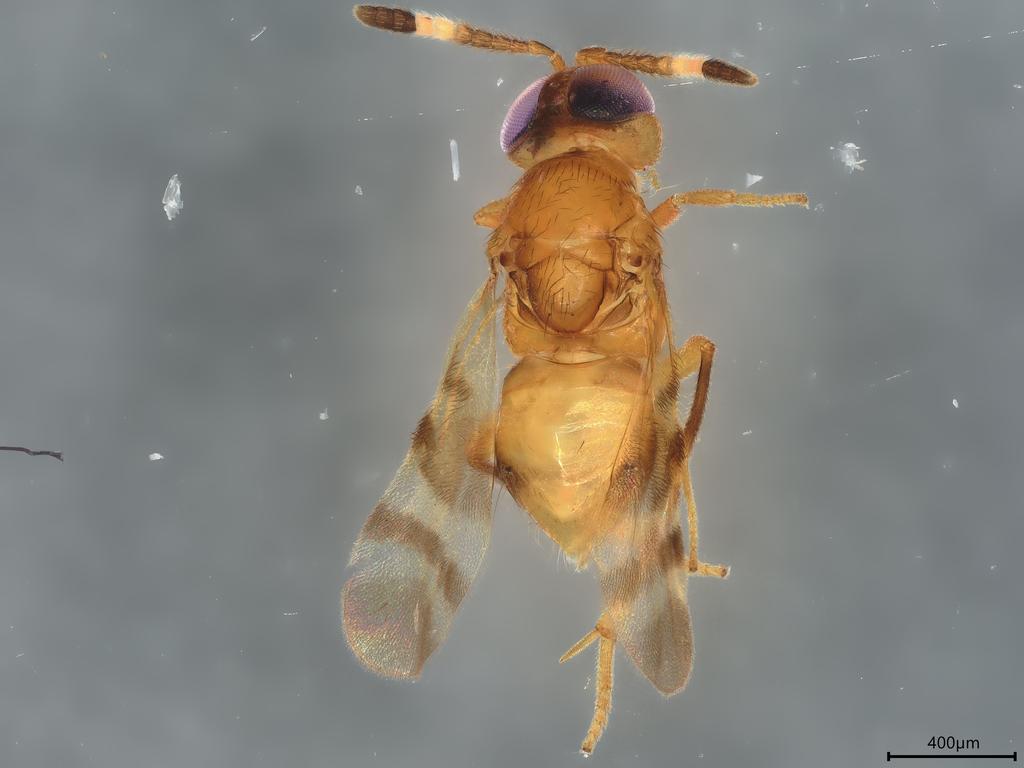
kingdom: Animalia
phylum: Arthropoda
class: Insecta
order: Hymenoptera
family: Encyrtidae
